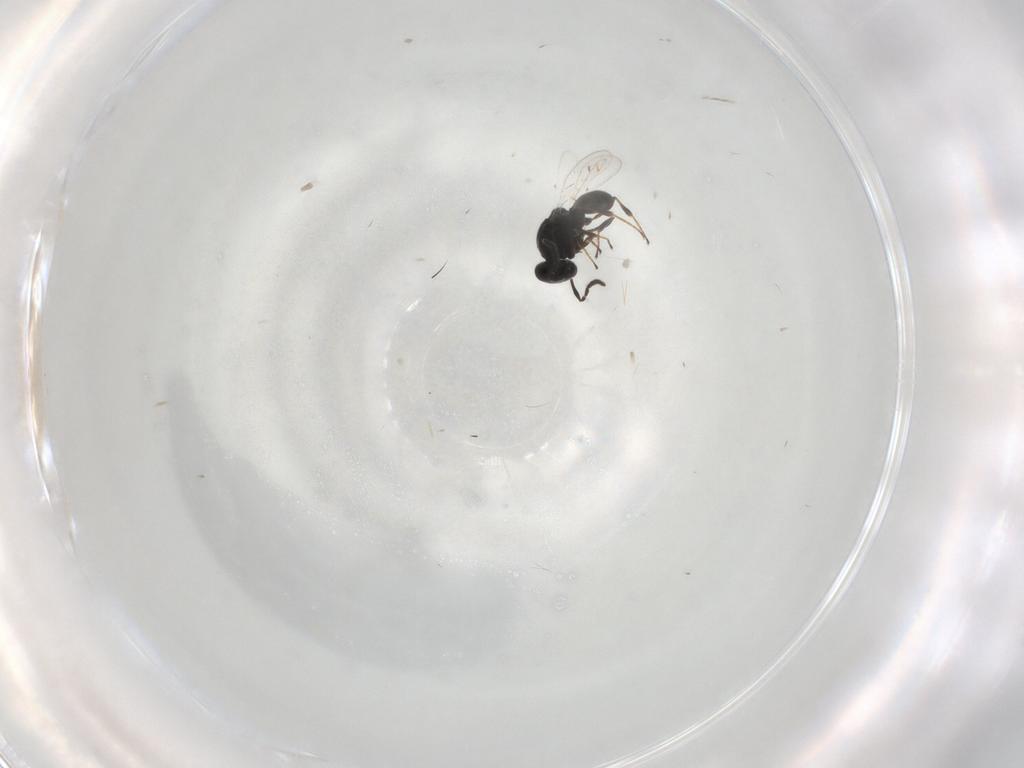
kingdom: Animalia
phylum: Arthropoda
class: Insecta
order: Hymenoptera
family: Platygastridae
